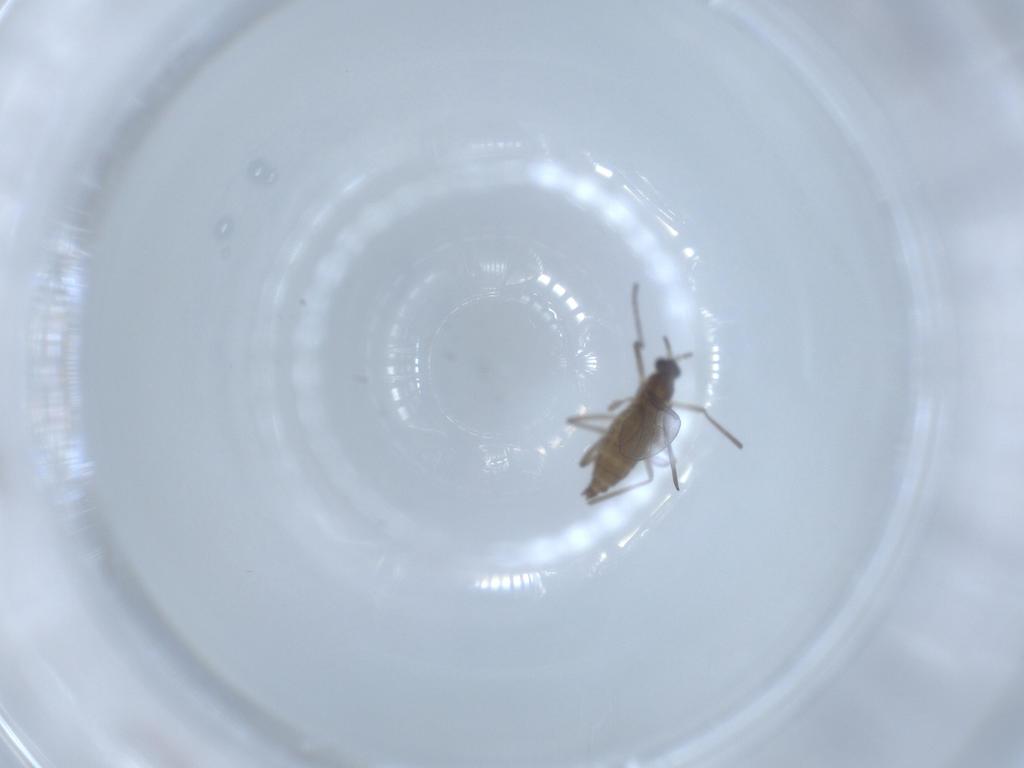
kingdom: Animalia
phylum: Arthropoda
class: Insecta
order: Diptera
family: Cecidomyiidae
